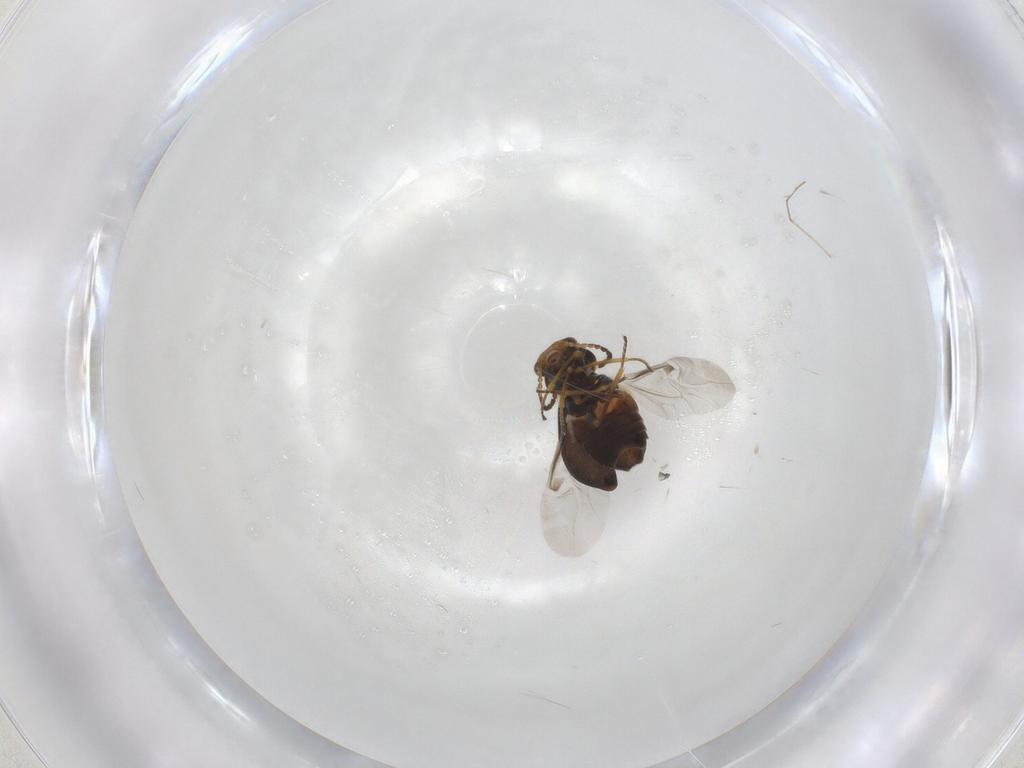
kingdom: Animalia
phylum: Arthropoda
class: Insecta
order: Coleoptera
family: Melyridae
